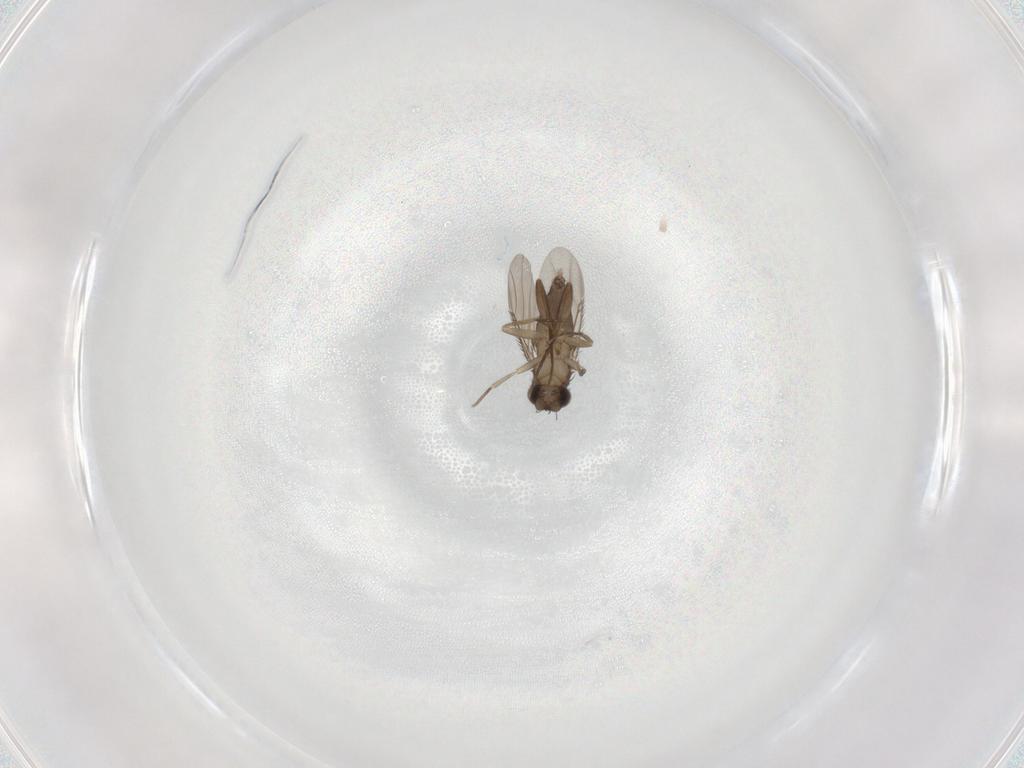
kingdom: Animalia
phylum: Arthropoda
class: Insecta
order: Diptera
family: Phoridae
